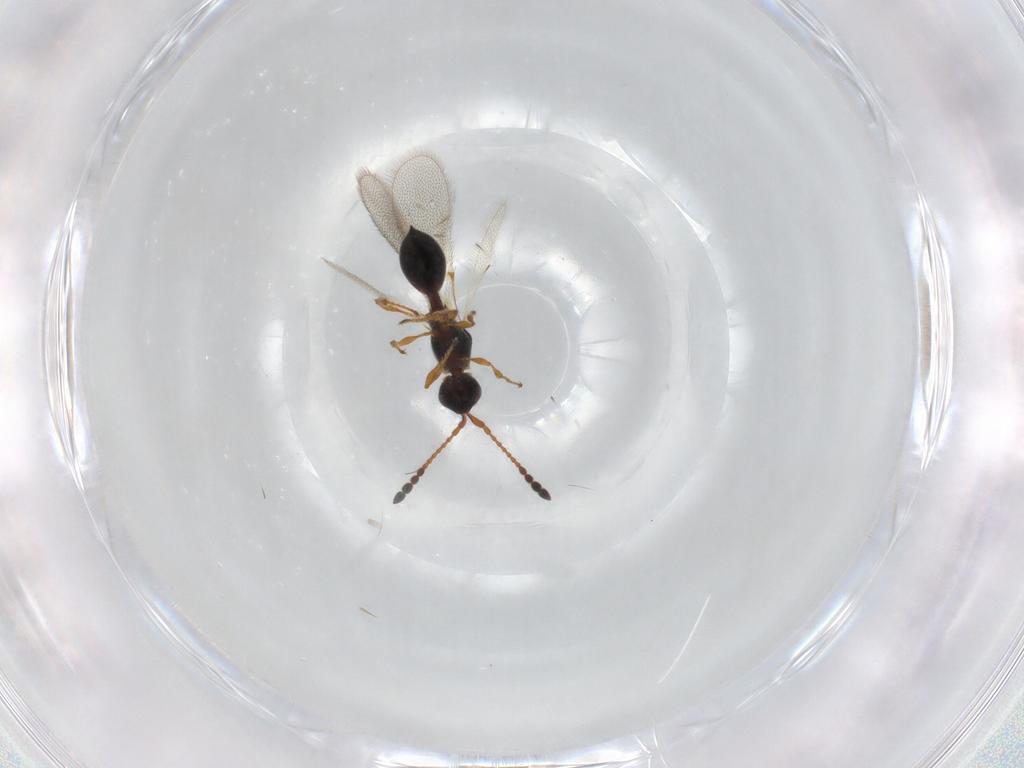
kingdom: Animalia
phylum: Arthropoda
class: Insecta
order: Hymenoptera
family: Diapriidae
